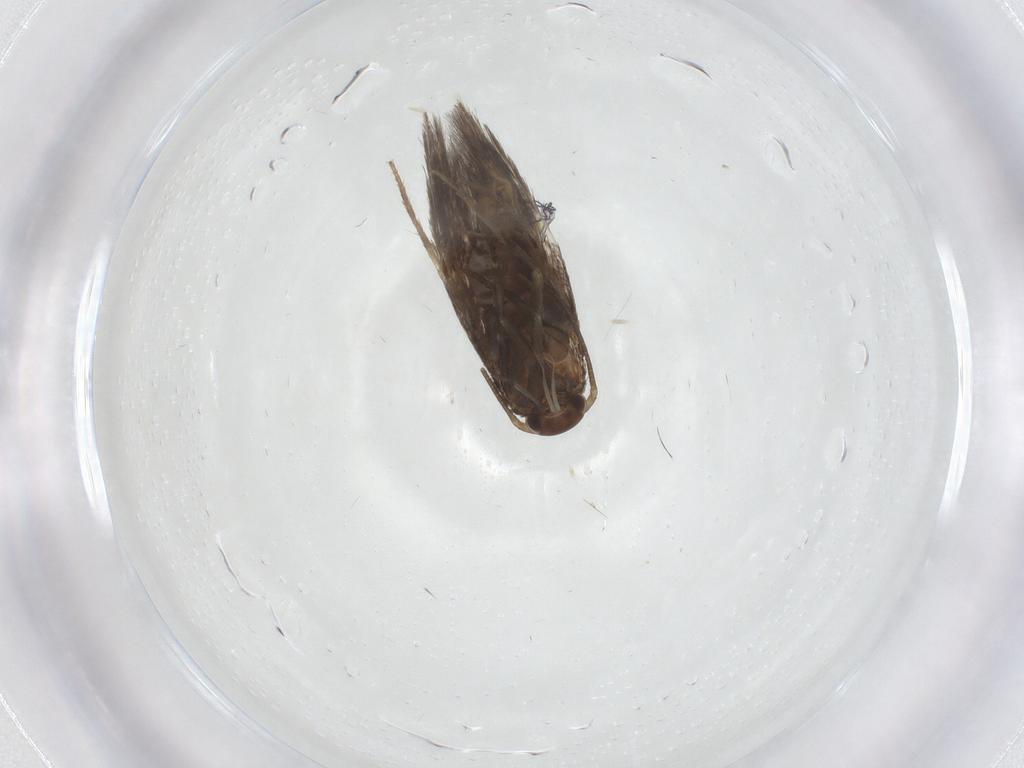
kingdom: Animalia
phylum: Arthropoda
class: Insecta
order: Lepidoptera
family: Elachistidae
